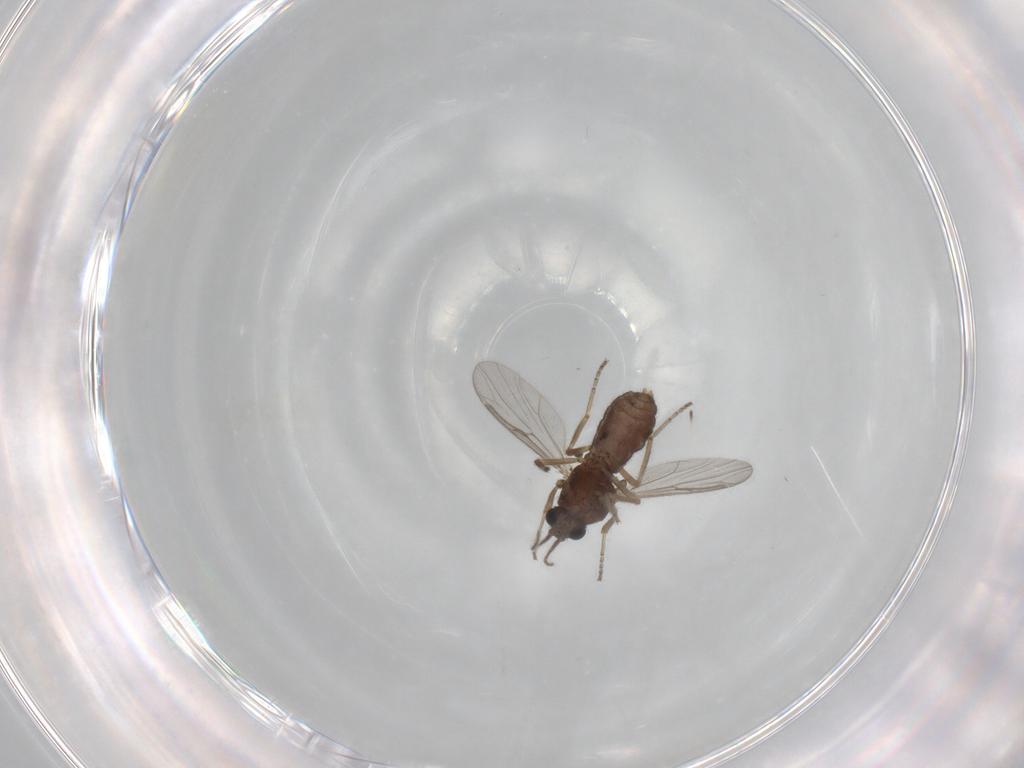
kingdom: Animalia
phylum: Arthropoda
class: Insecta
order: Diptera
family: Ceratopogonidae
